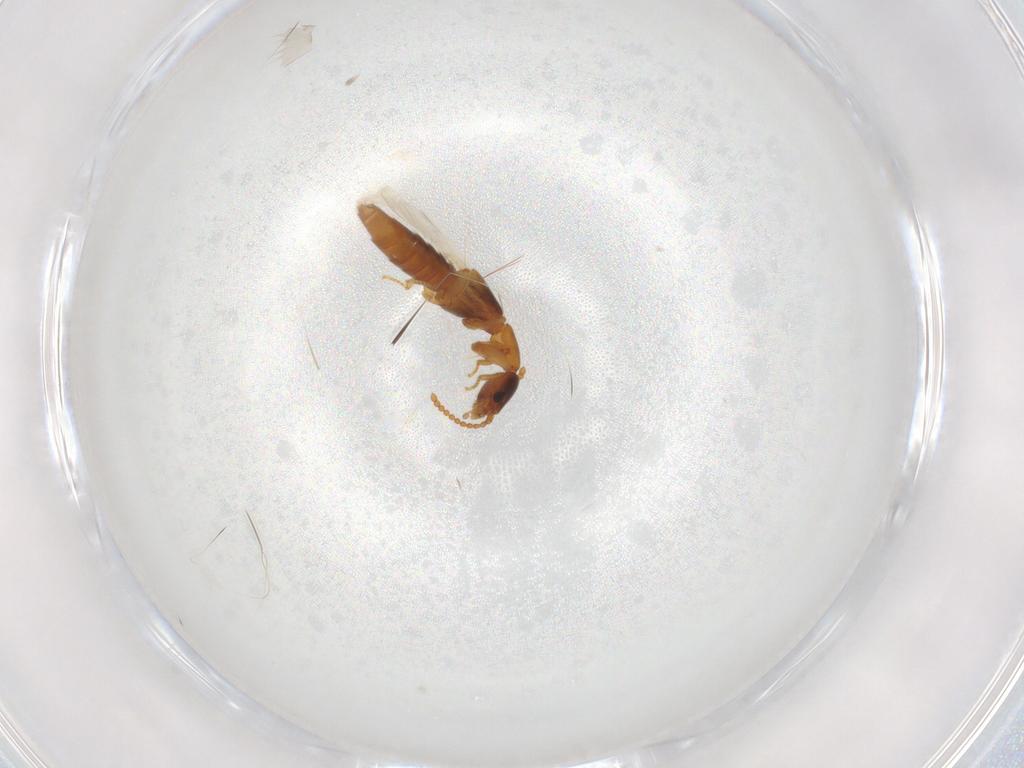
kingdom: Animalia
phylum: Arthropoda
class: Insecta
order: Coleoptera
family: Staphylinidae
